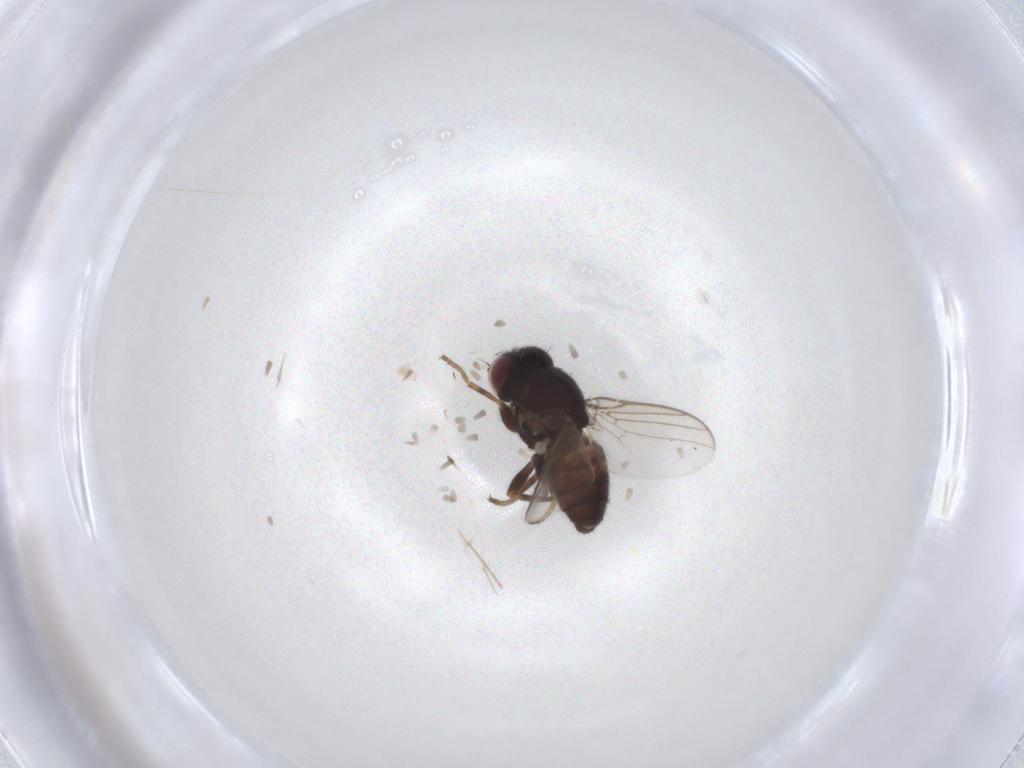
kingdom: Animalia
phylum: Arthropoda
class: Insecta
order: Diptera
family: Chloropidae
